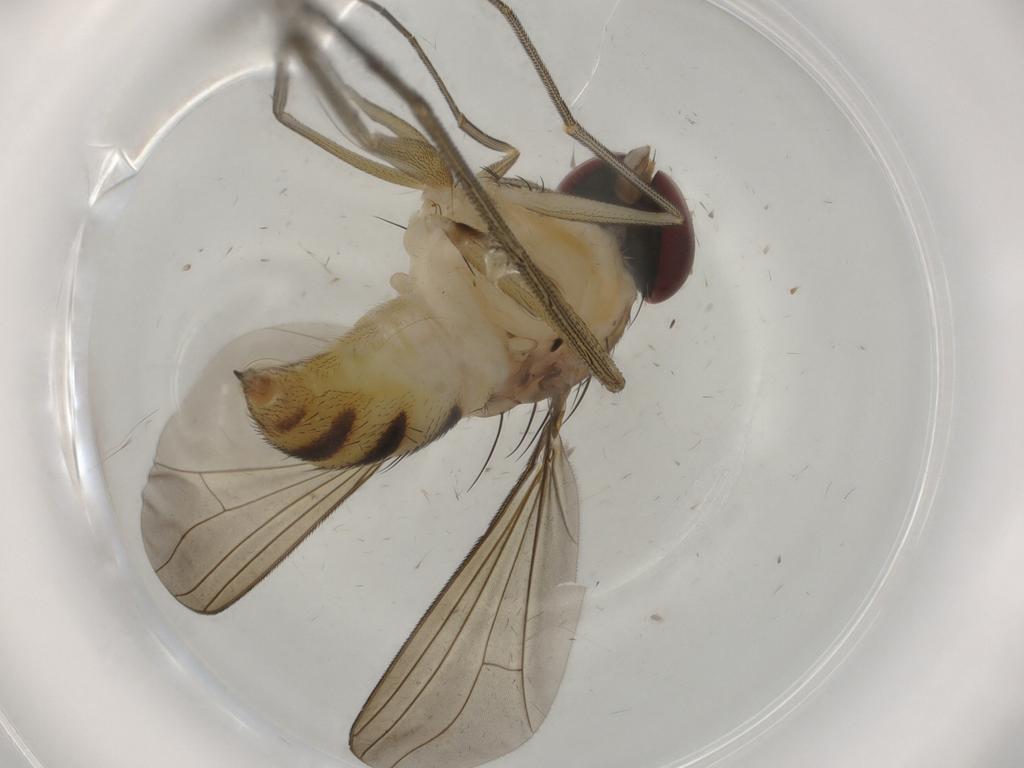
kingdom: Animalia
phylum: Arthropoda
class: Insecta
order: Diptera
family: Dolichopodidae
